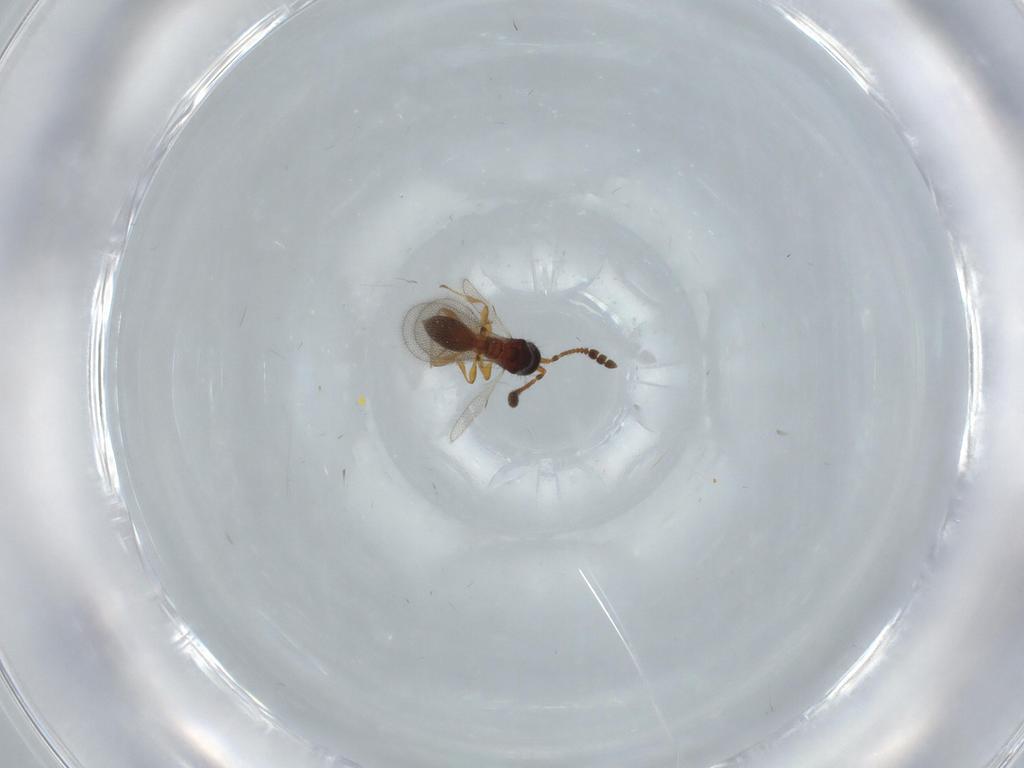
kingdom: Animalia
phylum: Arthropoda
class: Insecta
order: Hymenoptera
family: Diapriidae
